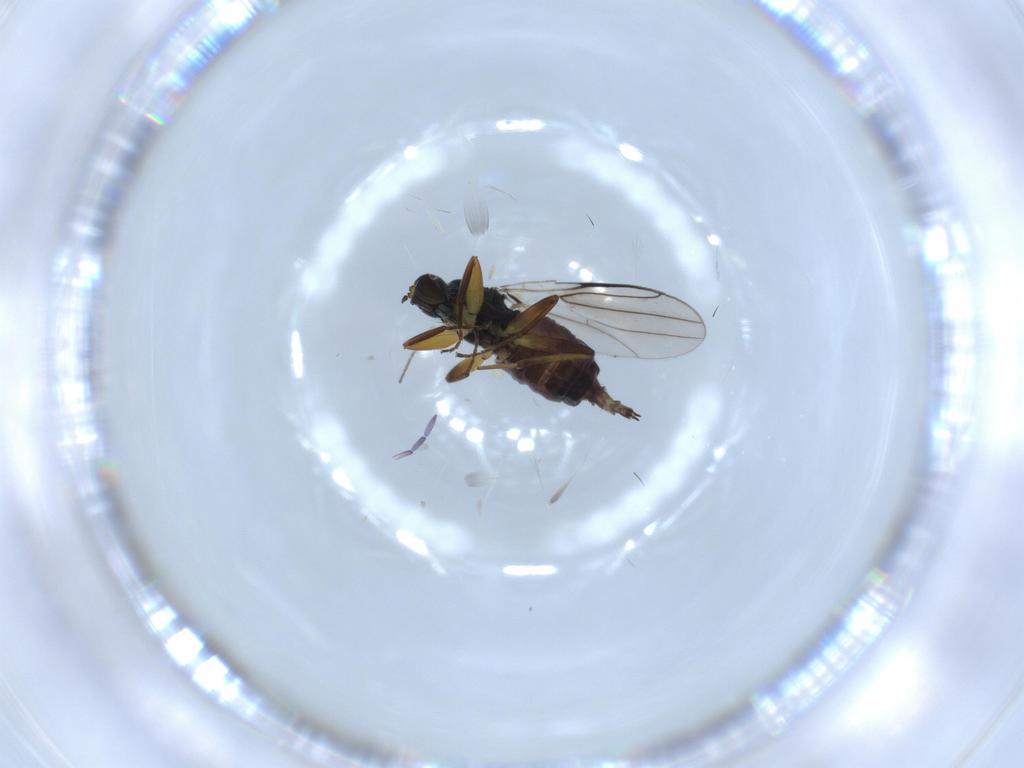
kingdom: Animalia
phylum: Arthropoda
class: Insecta
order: Diptera
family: Hybotidae
